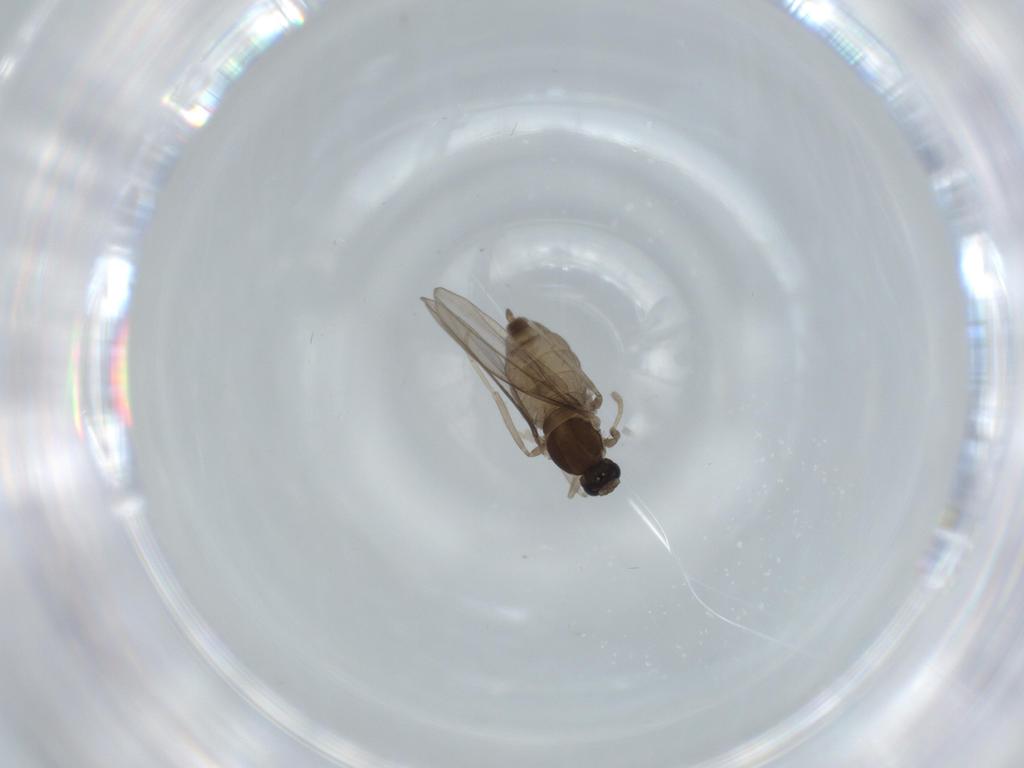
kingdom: Animalia
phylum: Arthropoda
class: Insecta
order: Diptera
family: Cecidomyiidae
